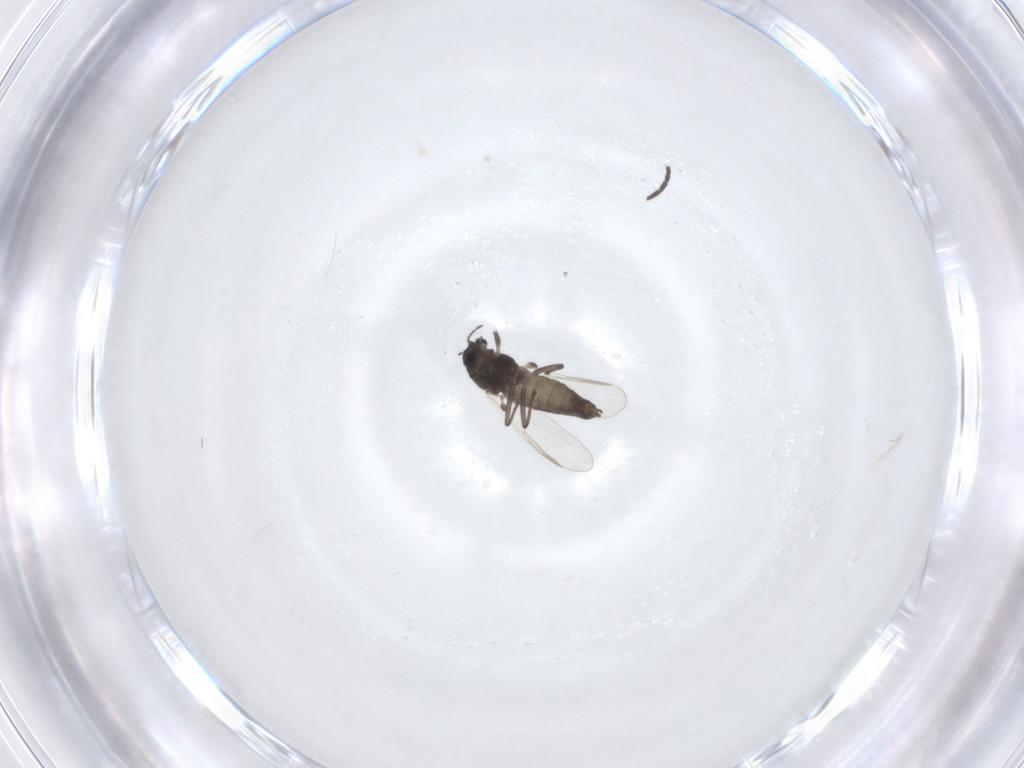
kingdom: Animalia
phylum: Arthropoda
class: Insecta
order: Diptera
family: Chironomidae
